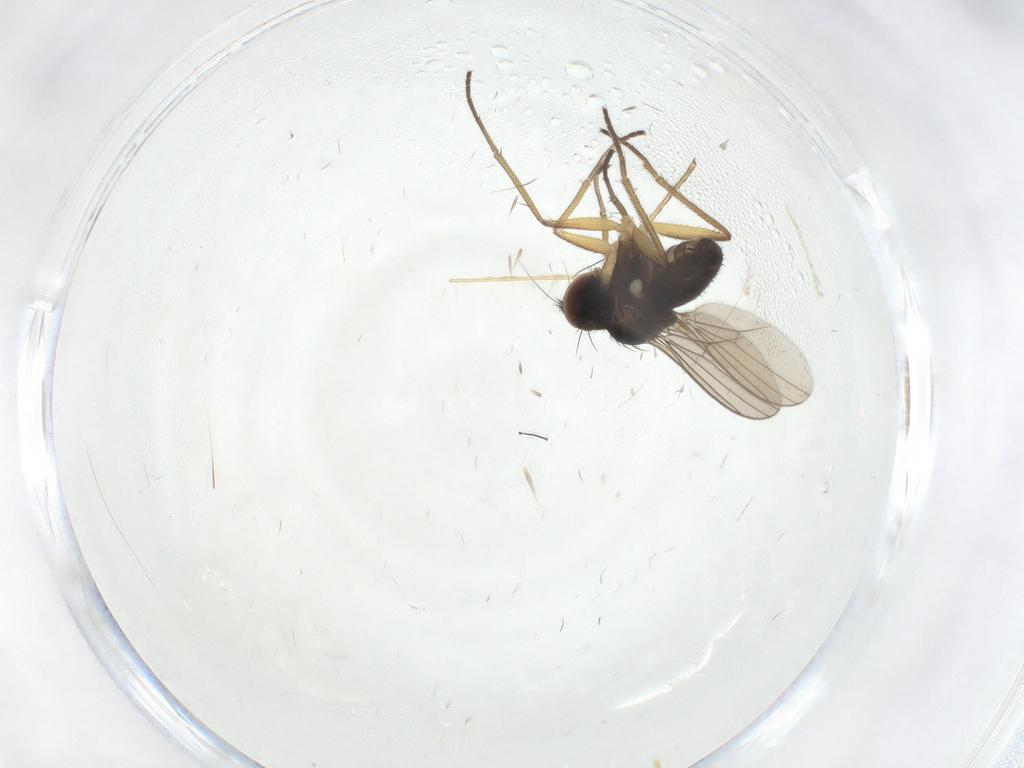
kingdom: Animalia
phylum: Arthropoda
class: Insecta
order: Diptera
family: Dolichopodidae
